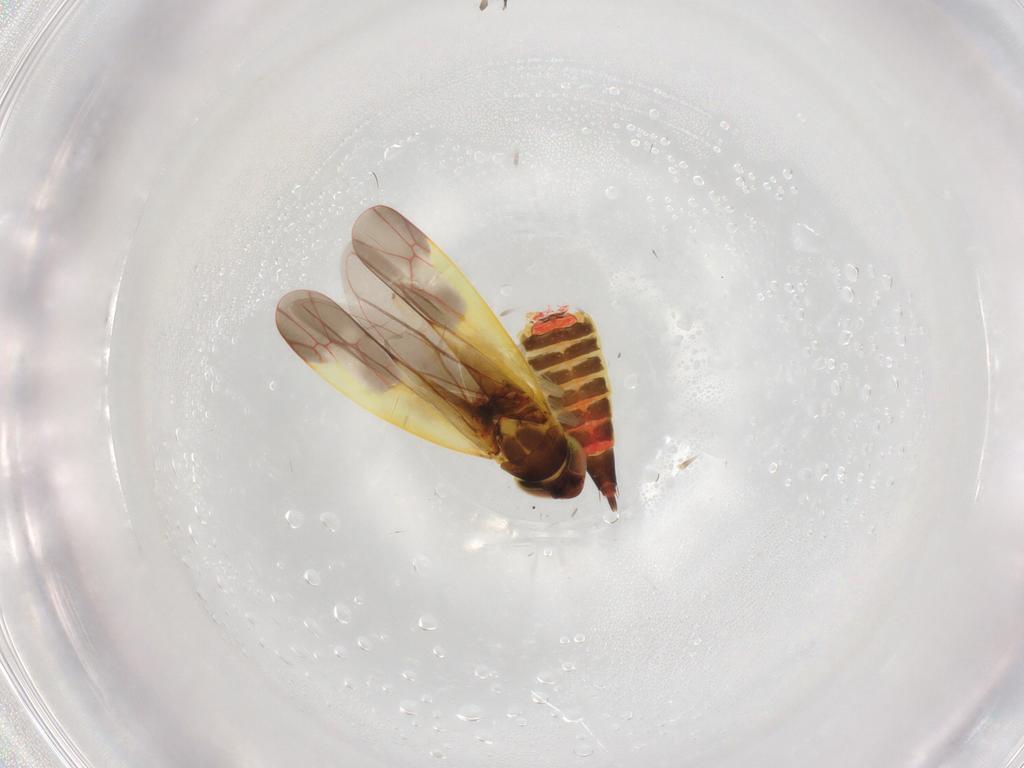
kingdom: Animalia
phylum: Arthropoda
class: Insecta
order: Hemiptera
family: Cicadellidae
